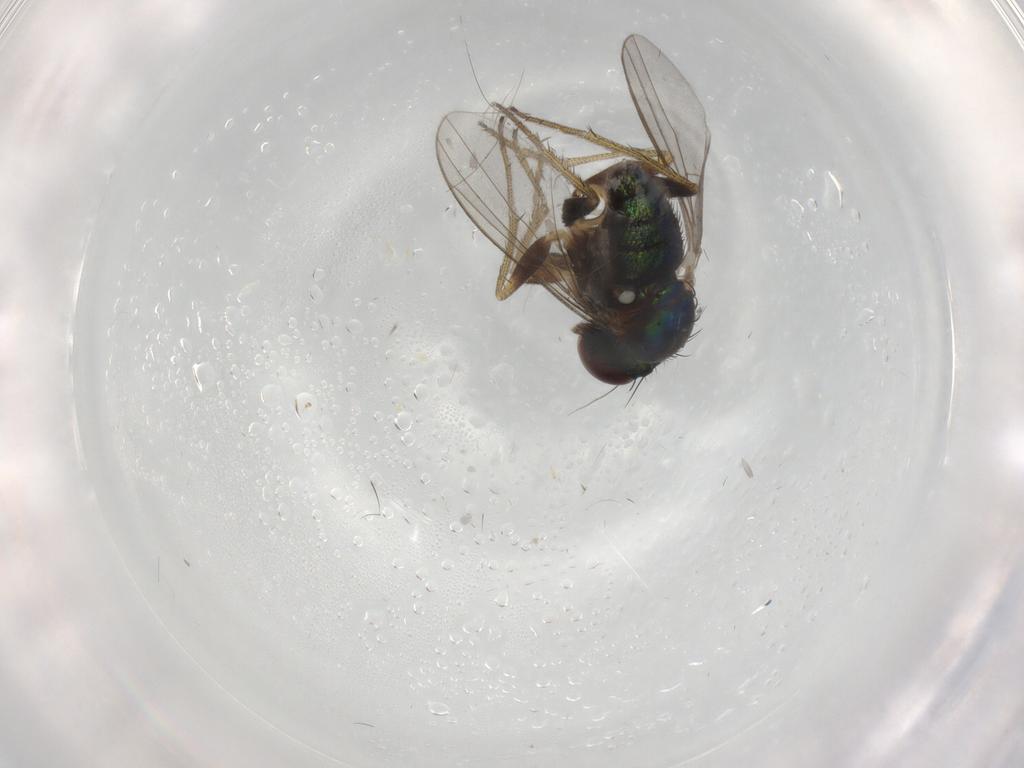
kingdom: Animalia
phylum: Arthropoda
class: Insecta
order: Diptera
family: Dolichopodidae
